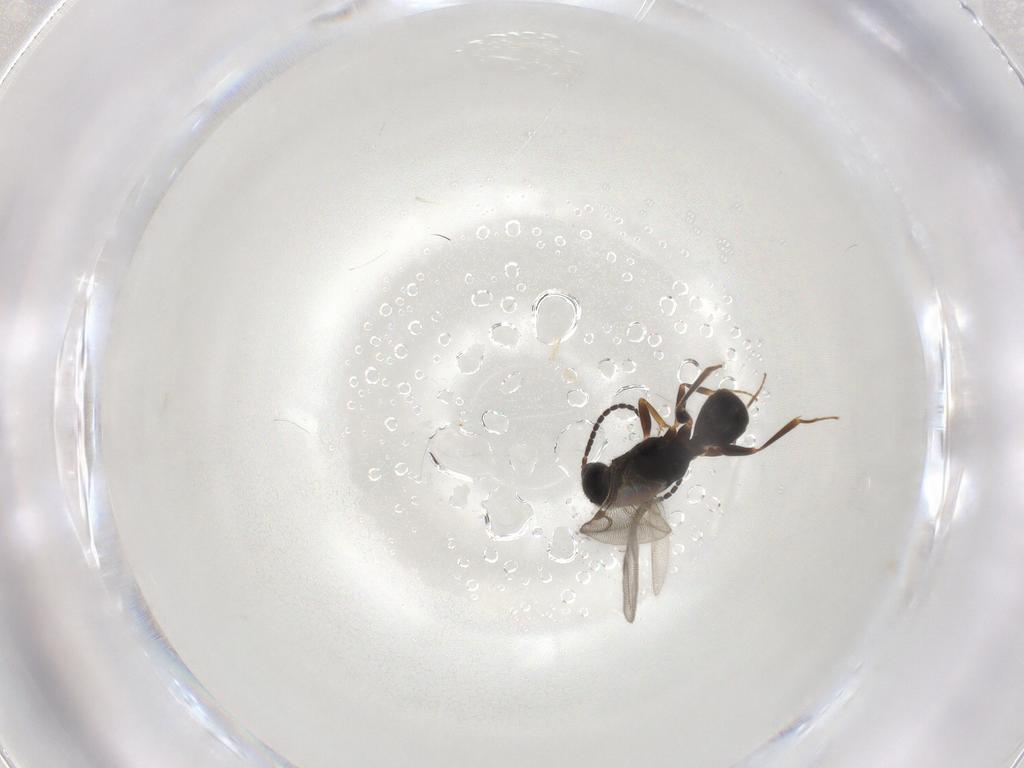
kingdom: Animalia
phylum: Arthropoda
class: Insecta
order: Hymenoptera
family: Bethylidae
